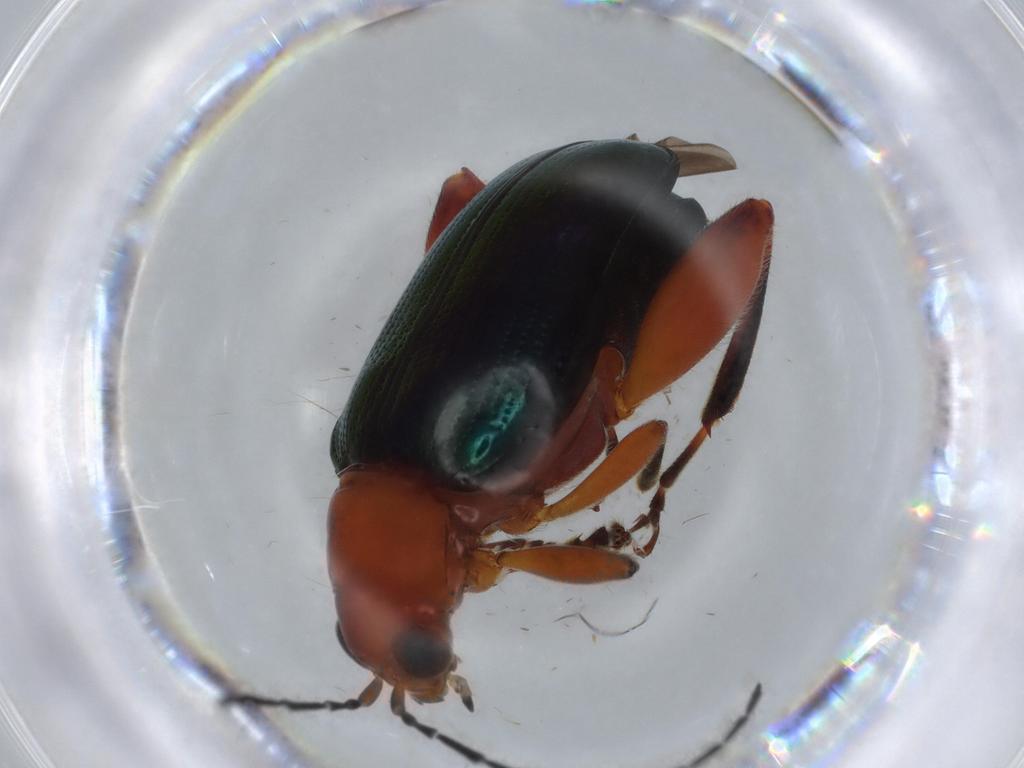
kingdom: Animalia
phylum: Arthropoda
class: Insecta
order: Coleoptera
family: Chrysomelidae
